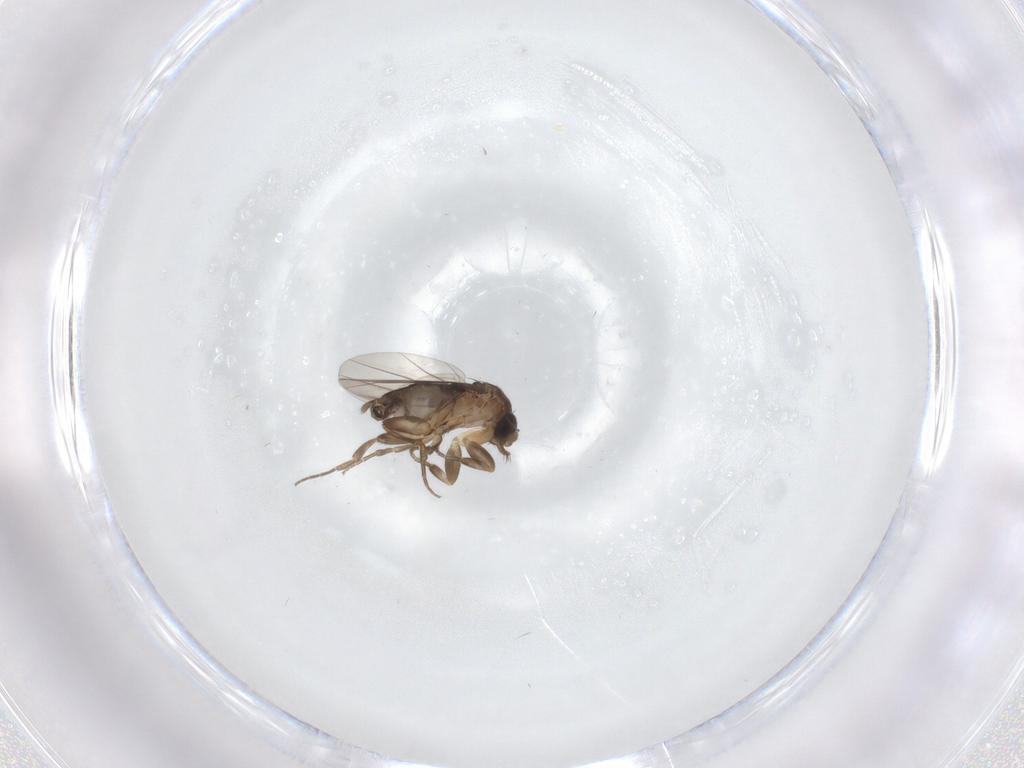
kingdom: Animalia
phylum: Arthropoda
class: Insecta
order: Diptera
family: Phoridae
